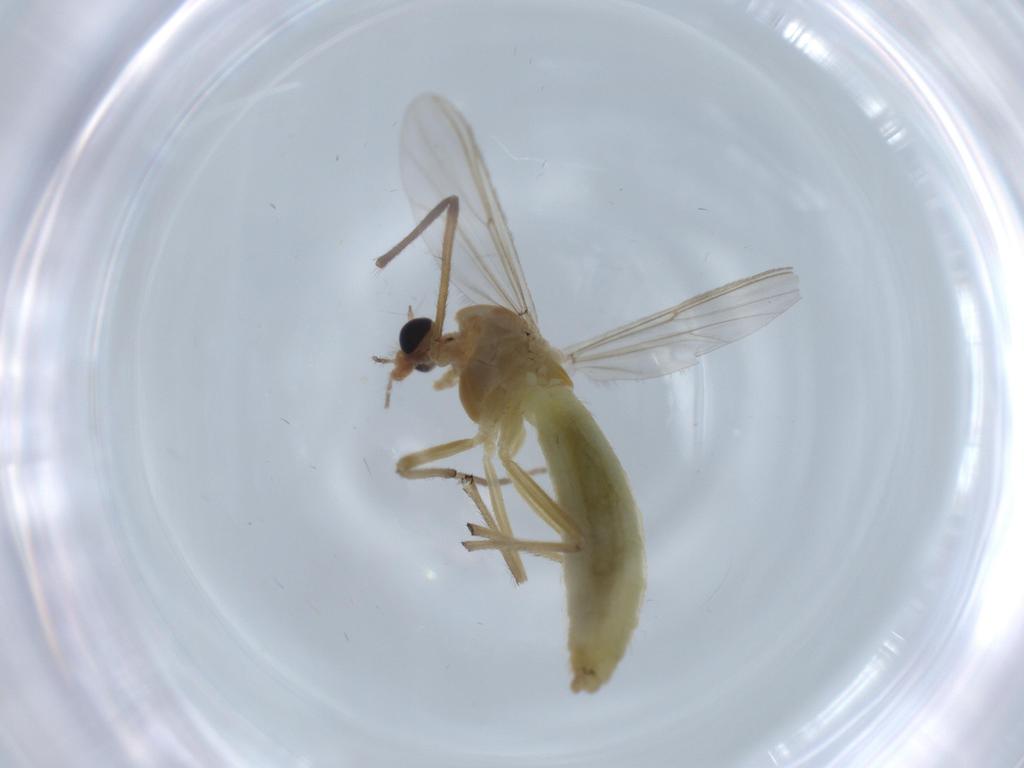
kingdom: Animalia
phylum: Arthropoda
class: Insecta
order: Diptera
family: Chironomidae
